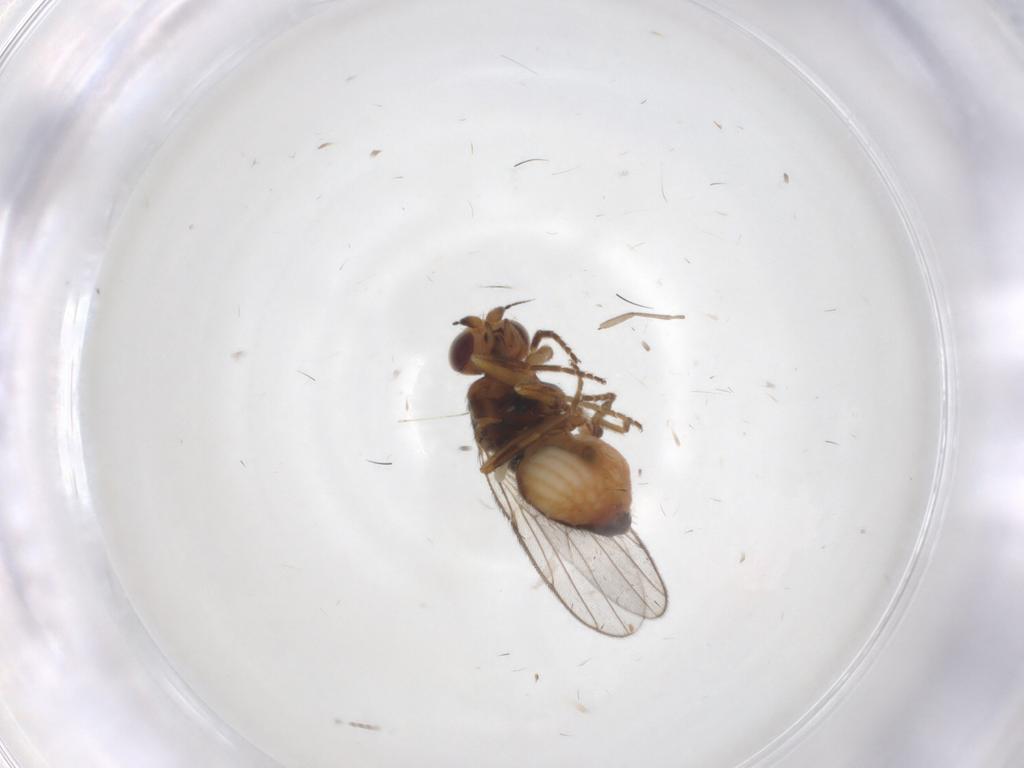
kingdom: Animalia
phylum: Arthropoda
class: Insecta
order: Diptera
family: Chloropidae
